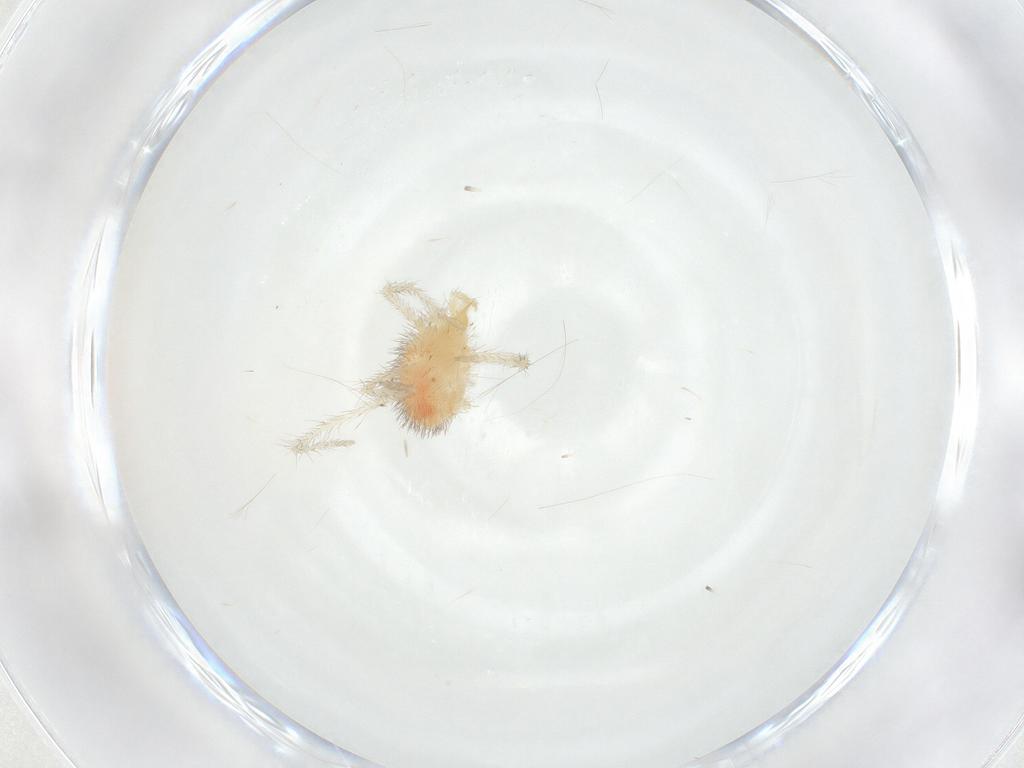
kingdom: Animalia
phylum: Arthropoda
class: Arachnida
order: Trombidiformes
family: Erythraeidae
